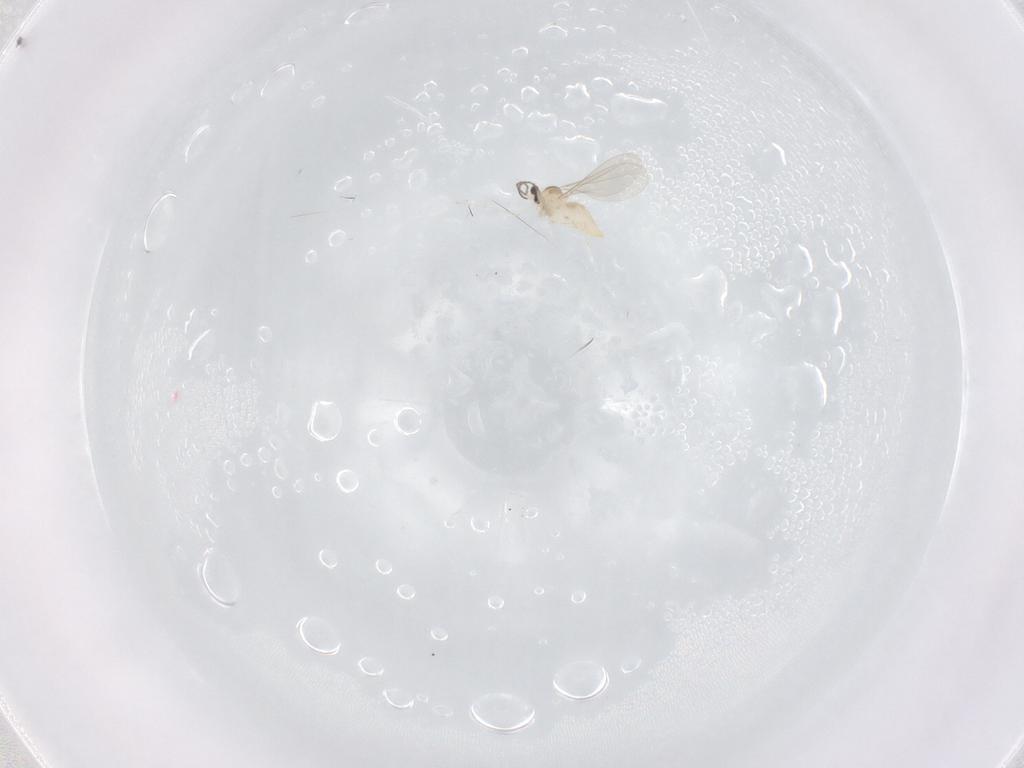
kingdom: Animalia
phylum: Arthropoda
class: Insecta
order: Diptera
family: Cecidomyiidae
